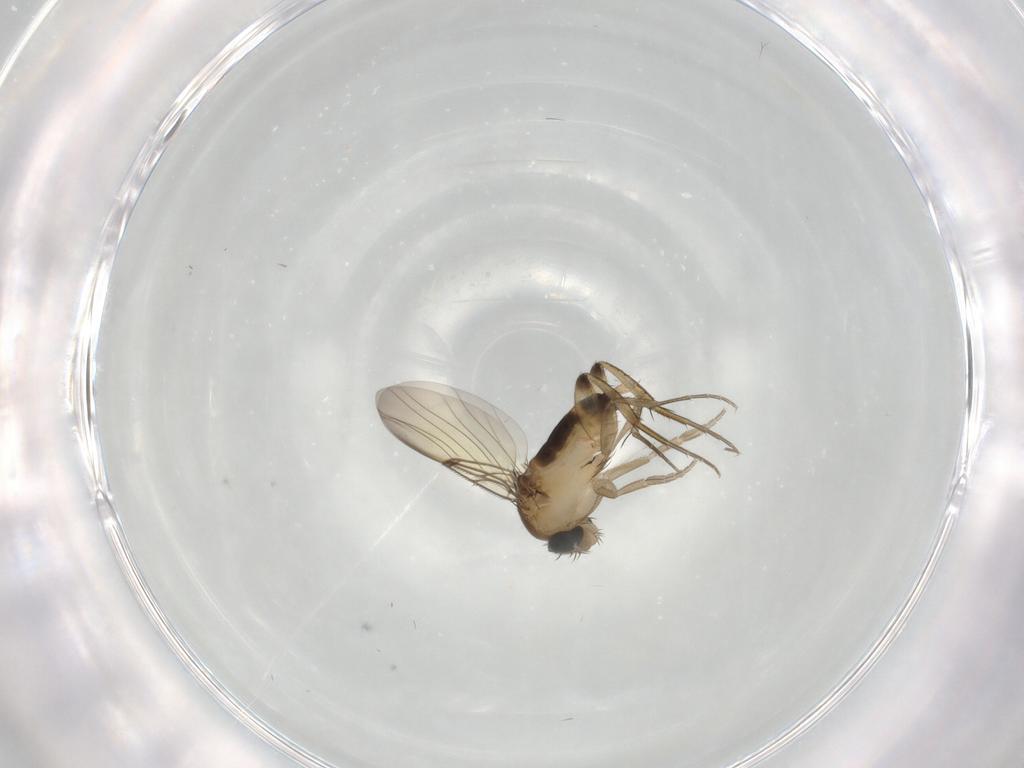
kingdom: Animalia
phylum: Arthropoda
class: Insecta
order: Diptera
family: Phoridae
